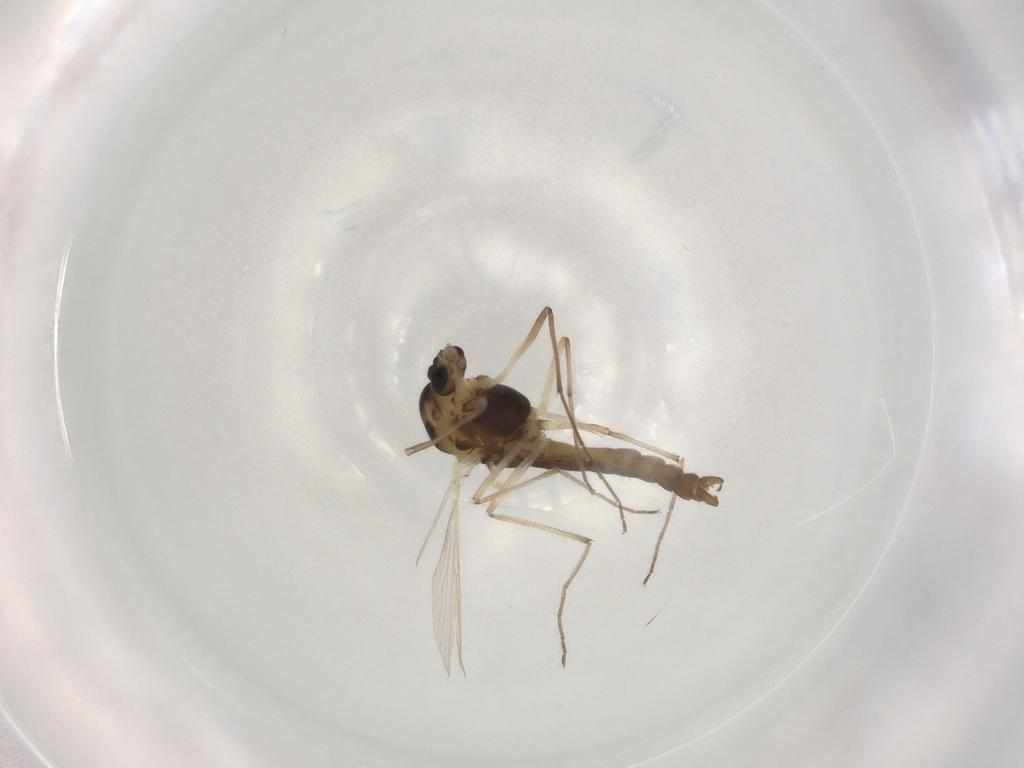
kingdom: Animalia
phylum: Arthropoda
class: Insecta
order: Diptera
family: Chironomidae
